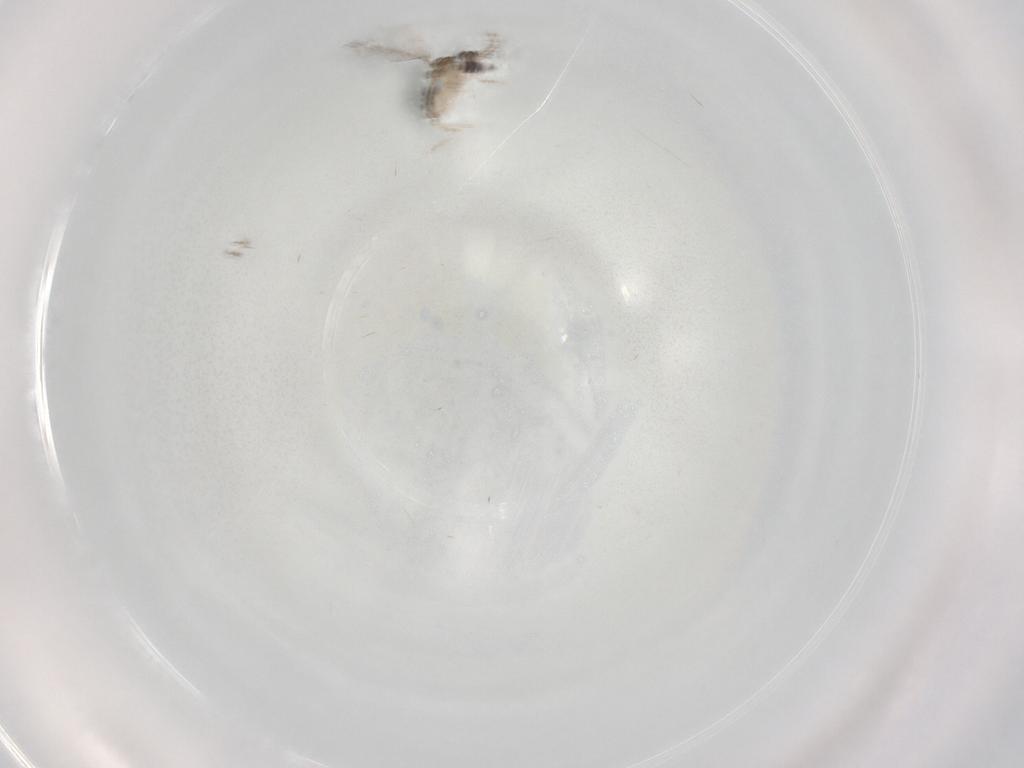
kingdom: Animalia
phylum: Arthropoda
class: Insecta
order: Diptera
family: Cecidomyiidae
